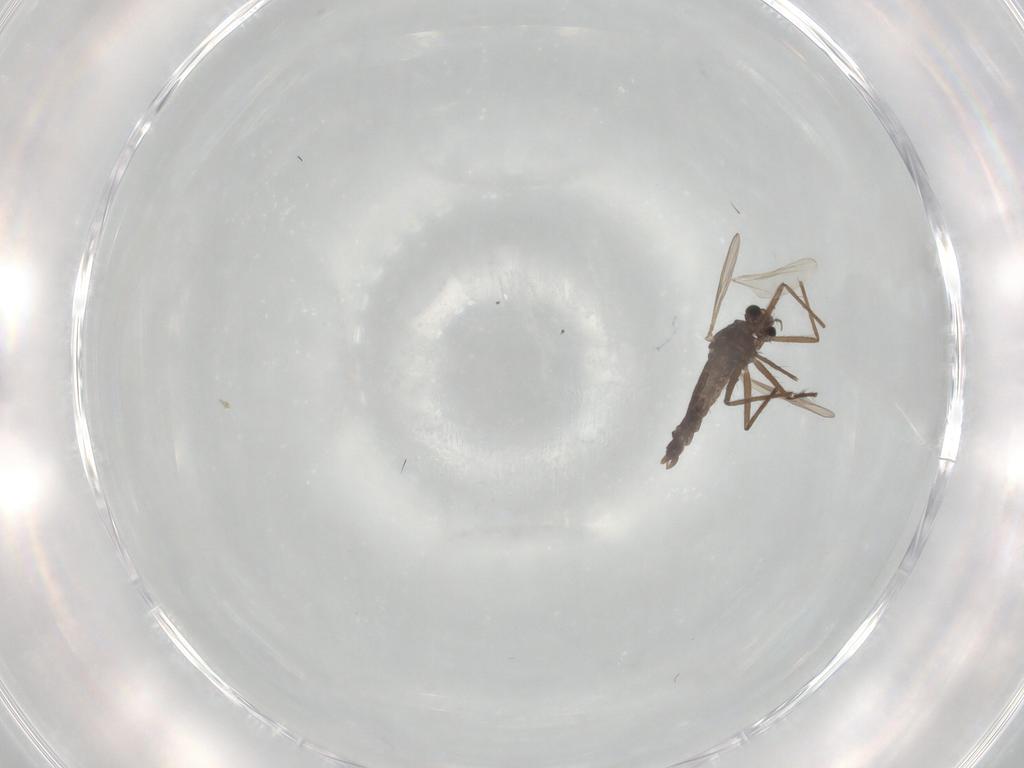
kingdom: Animalia
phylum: Arthropoda
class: Insecta
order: Diptera
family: Chironomidae
